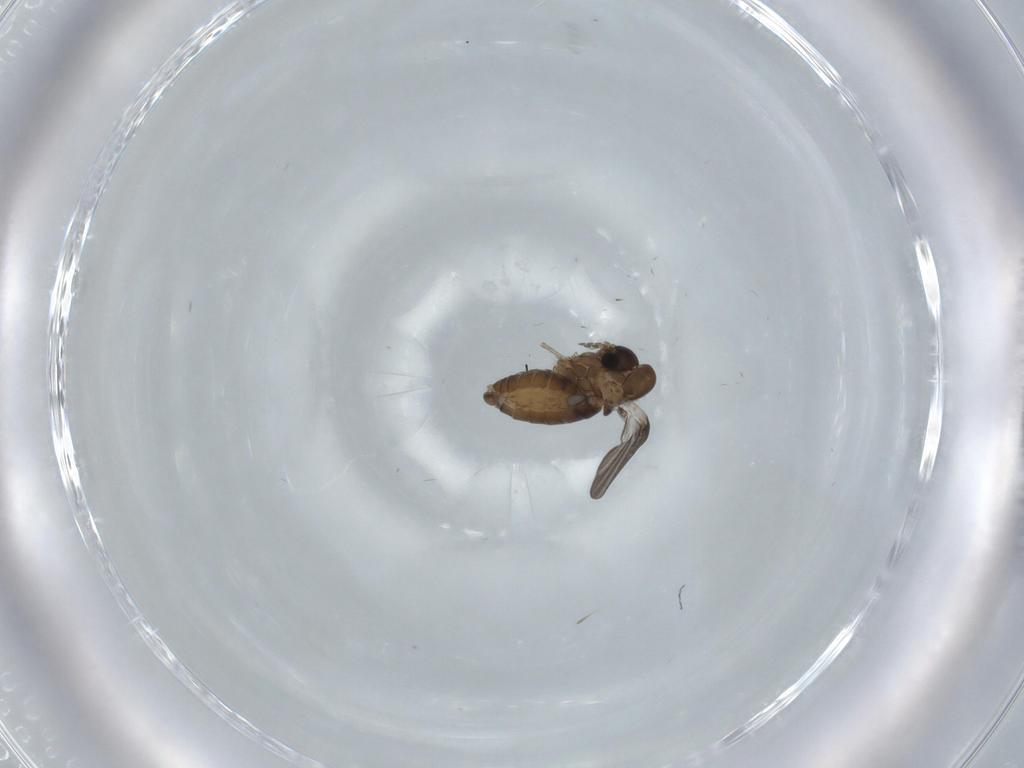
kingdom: Animalia
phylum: Arthropoda
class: Insecta
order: Diptera
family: Psychodidae
